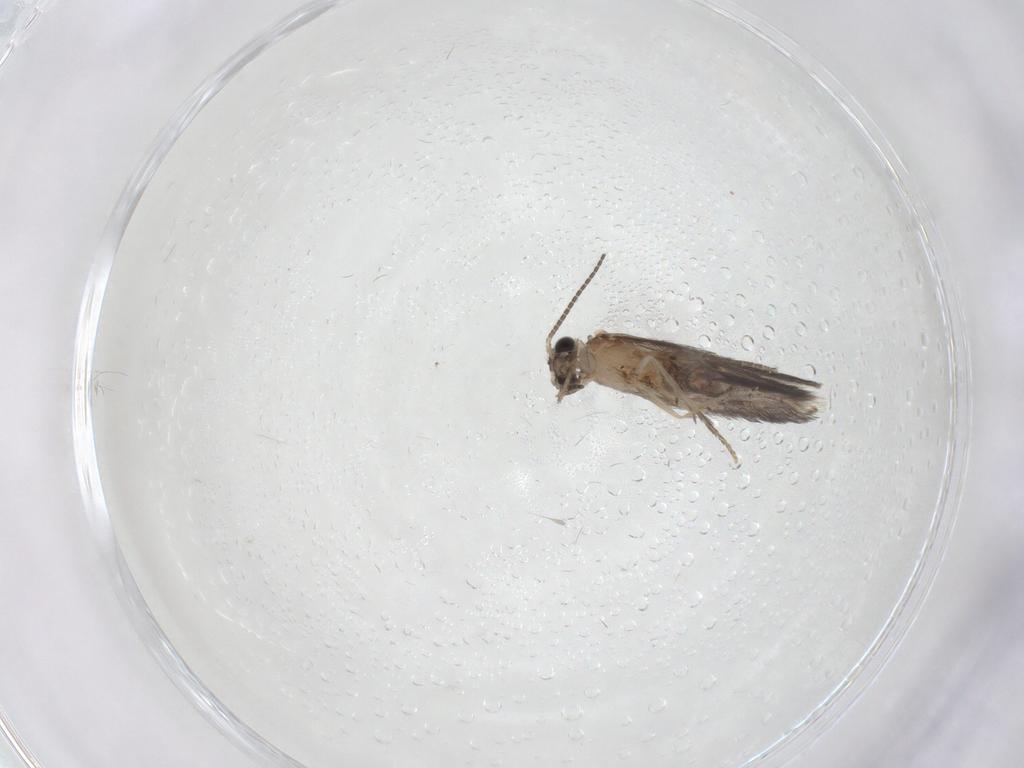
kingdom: Animalia
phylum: Arthropoda
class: Insecta
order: Trichoptera
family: Hydroptilidae
